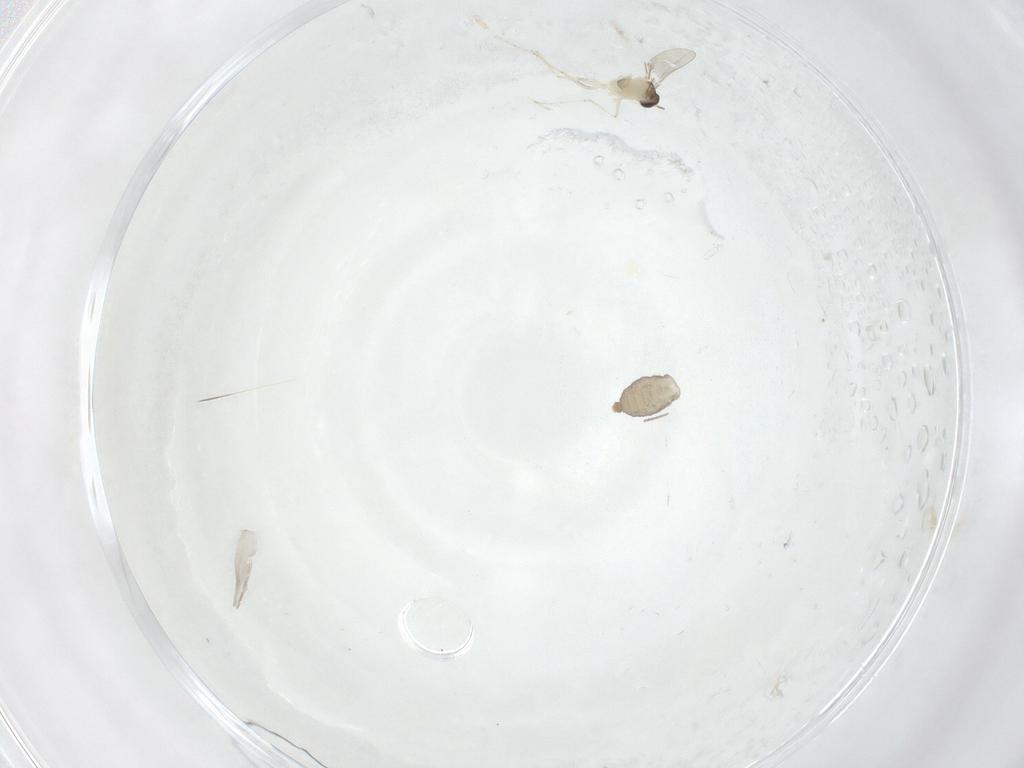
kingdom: Animalia
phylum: Arthropoda
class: Insecta
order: Diptera
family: Cecidomyiidae
